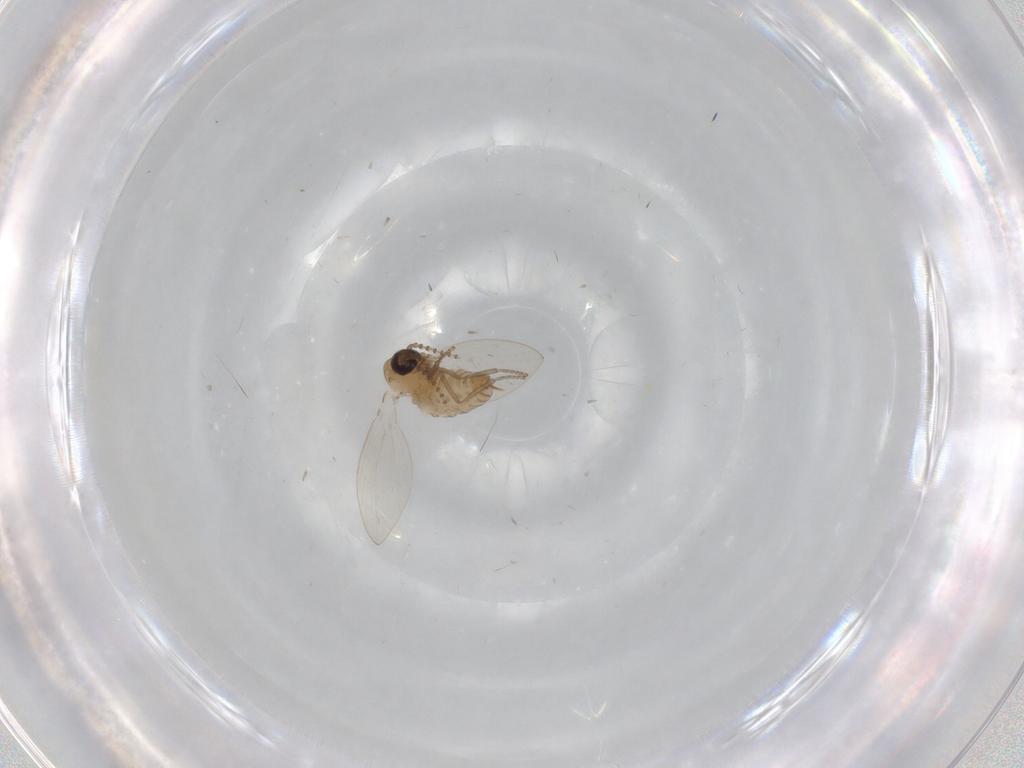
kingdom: Animalia
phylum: Arthropoda
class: Insecta
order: Diptera
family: Psychodidae
